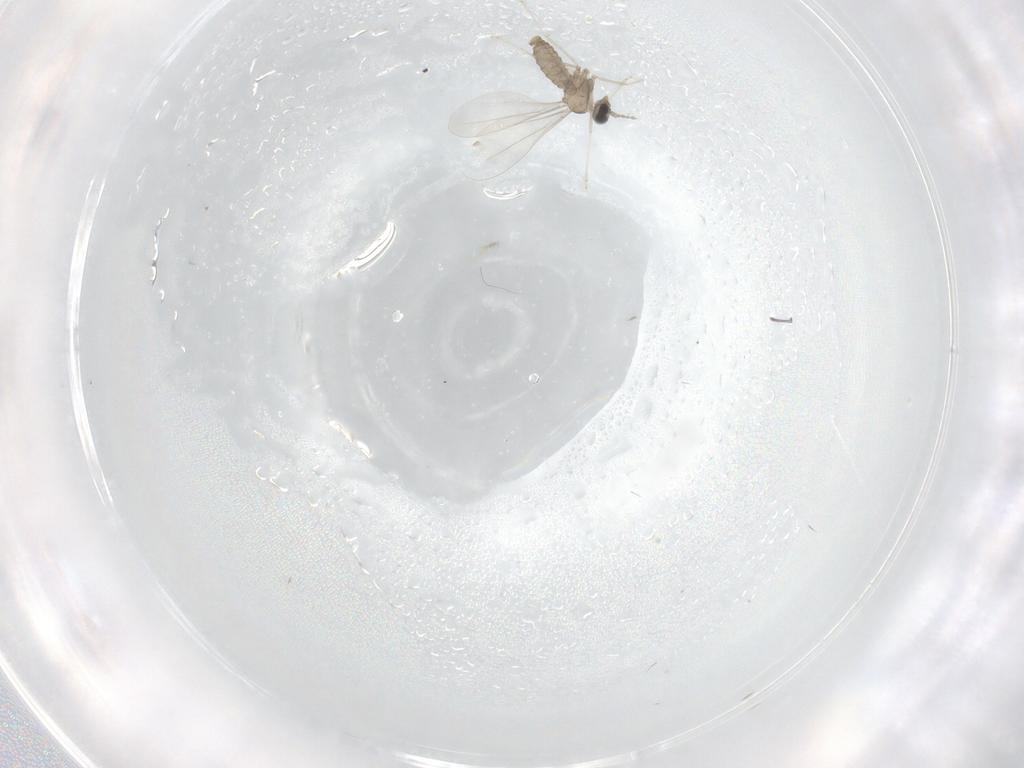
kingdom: Animalia
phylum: Arthropoda
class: Insecta
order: Diptera
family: Cecidomyiidae
